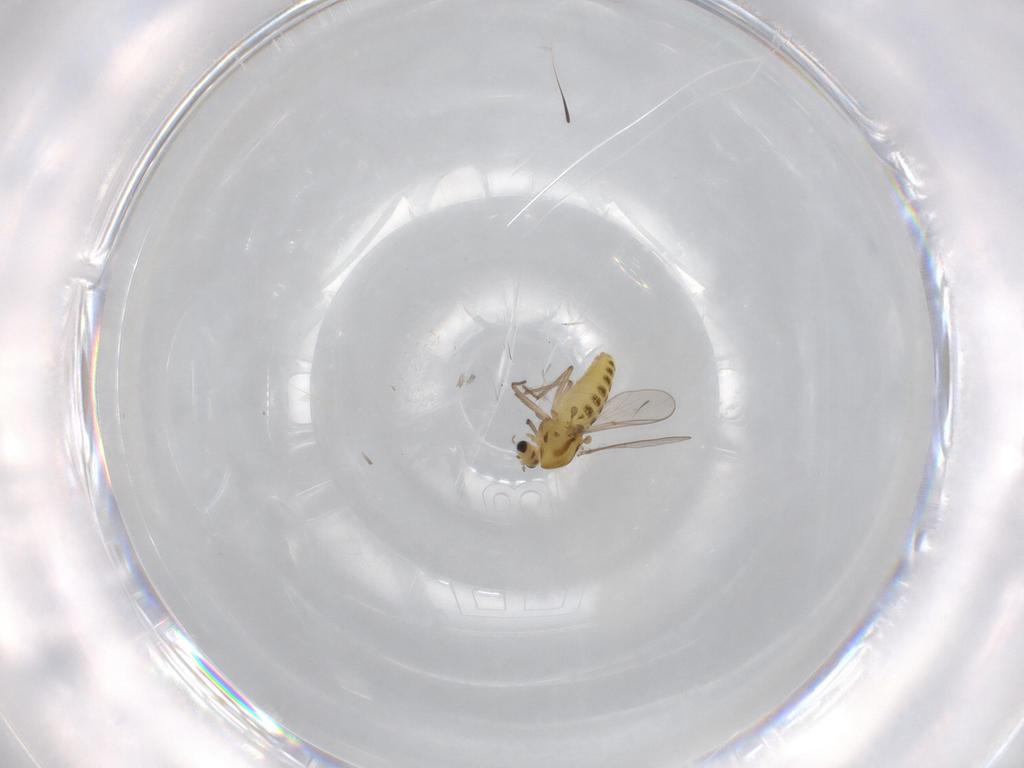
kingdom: Animalia
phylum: Arthropoda
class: Insecta
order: Diptera
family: Chironomidae
